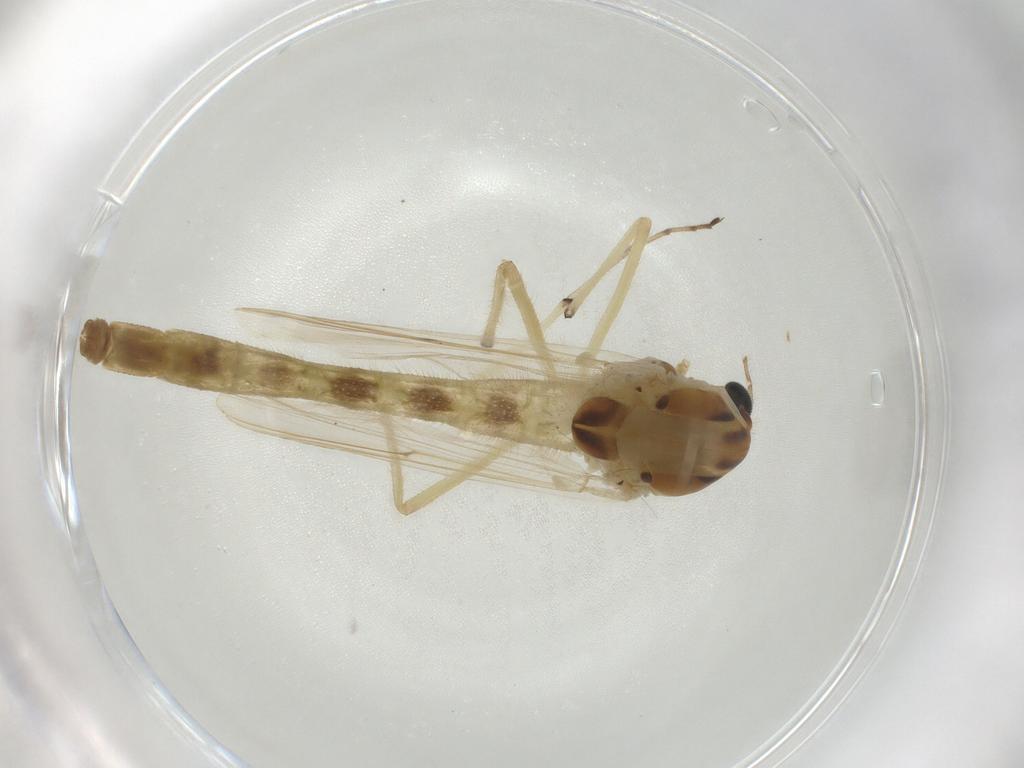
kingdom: Animalia
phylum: Arthropoda
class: Insecta
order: Diptera
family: Chironomidae
